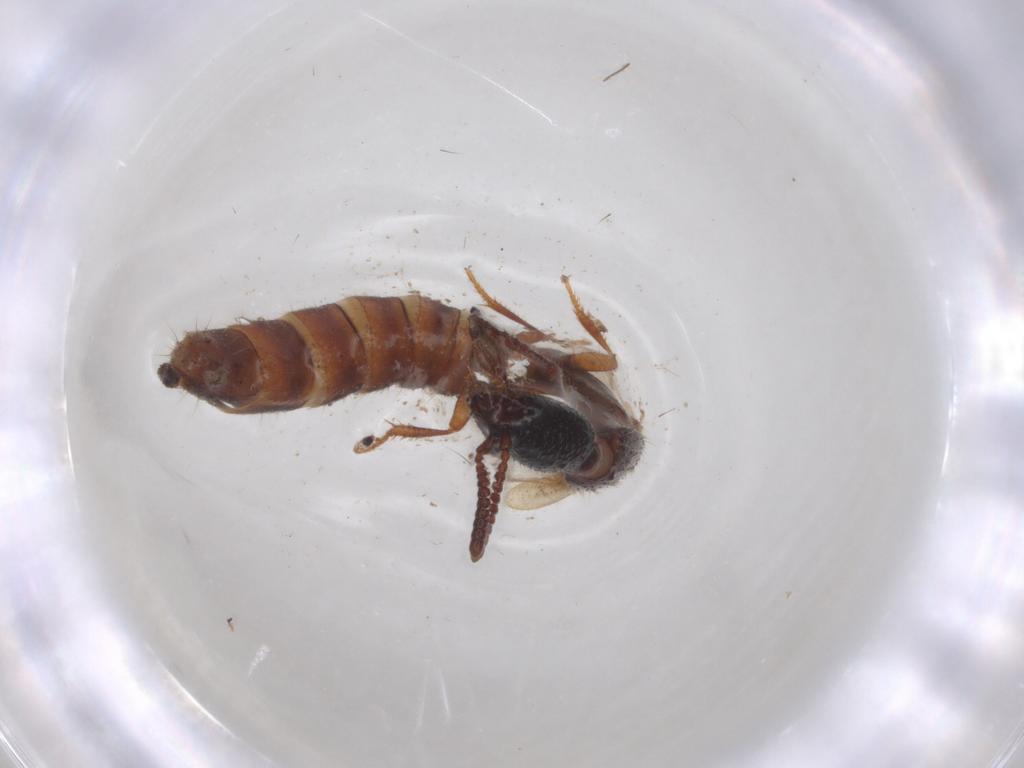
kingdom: Animalia
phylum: Arthropoda
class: Insecta
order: Coleoptera
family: Staphylinidae
